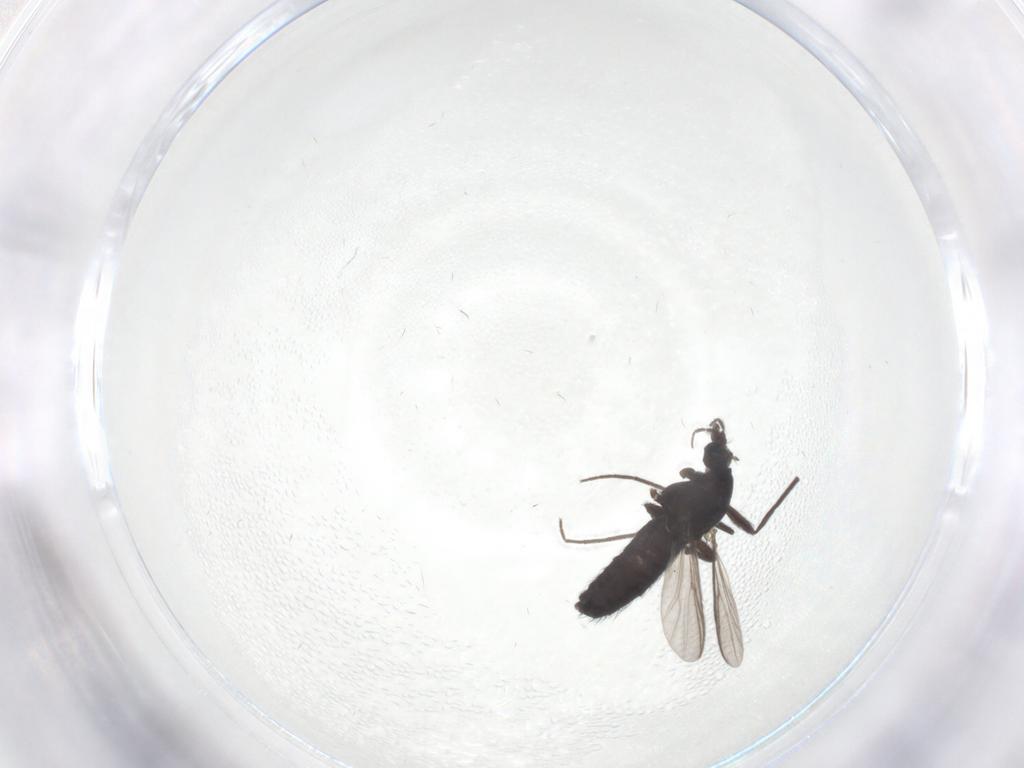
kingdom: Animalia
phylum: Arthropoda
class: Insecta
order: Diptera
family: Chironomidae
